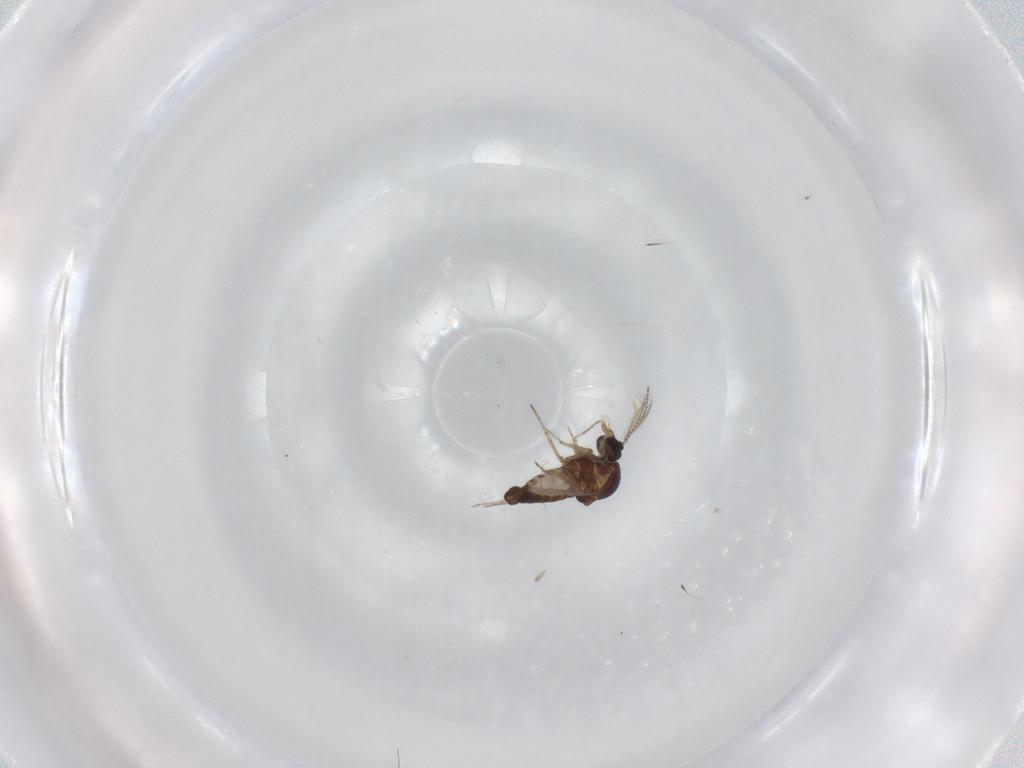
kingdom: Animalia
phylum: Arthropoda
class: Insecta
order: Diptera
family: Ceratopogonidae
